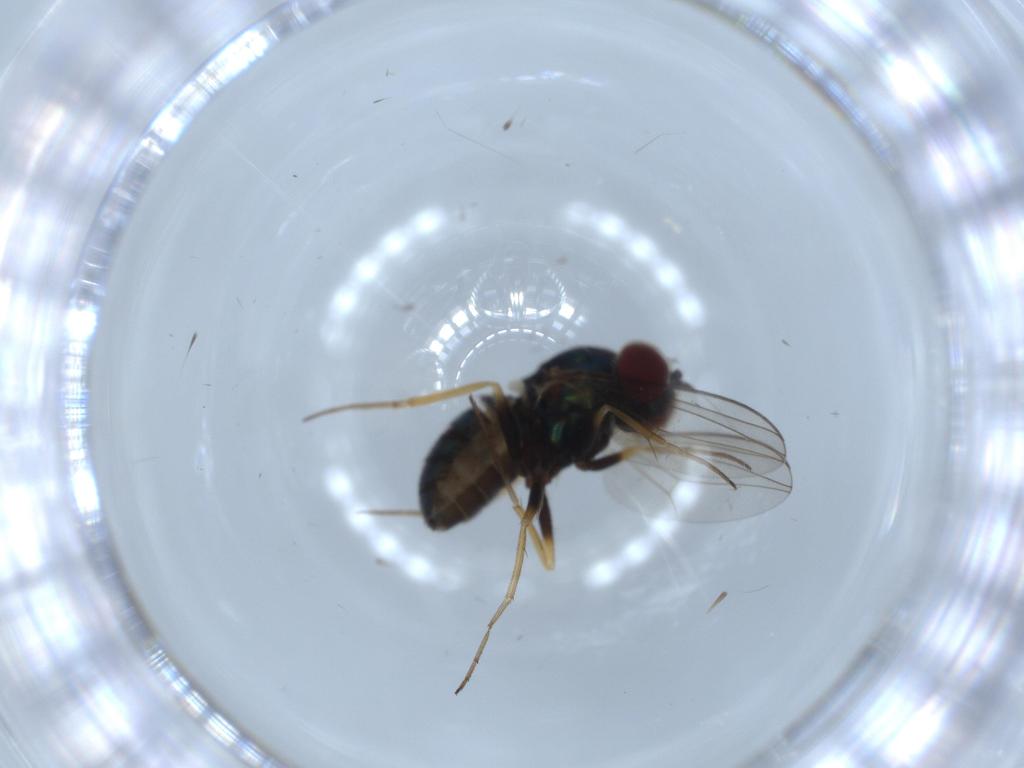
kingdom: Animalia
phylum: Arthropoda
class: Insecta
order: Diptera
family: Dolichopodidae
